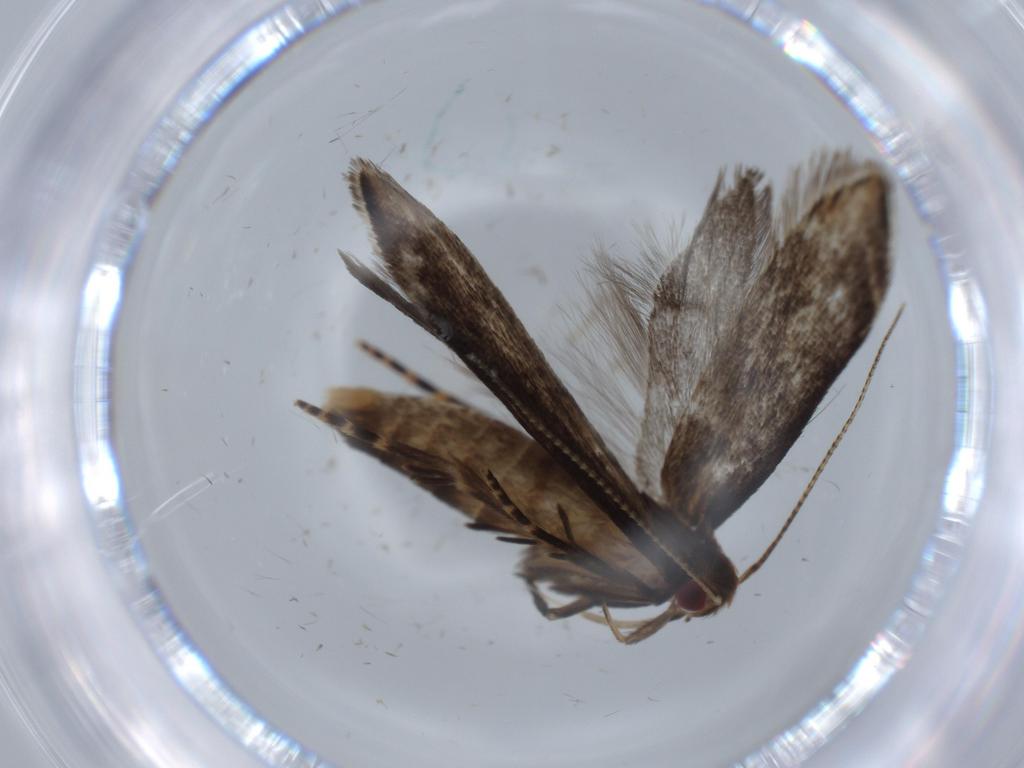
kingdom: Animalia
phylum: Arthropoda
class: Insecta
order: Lepidoptera
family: Gelechiidae
